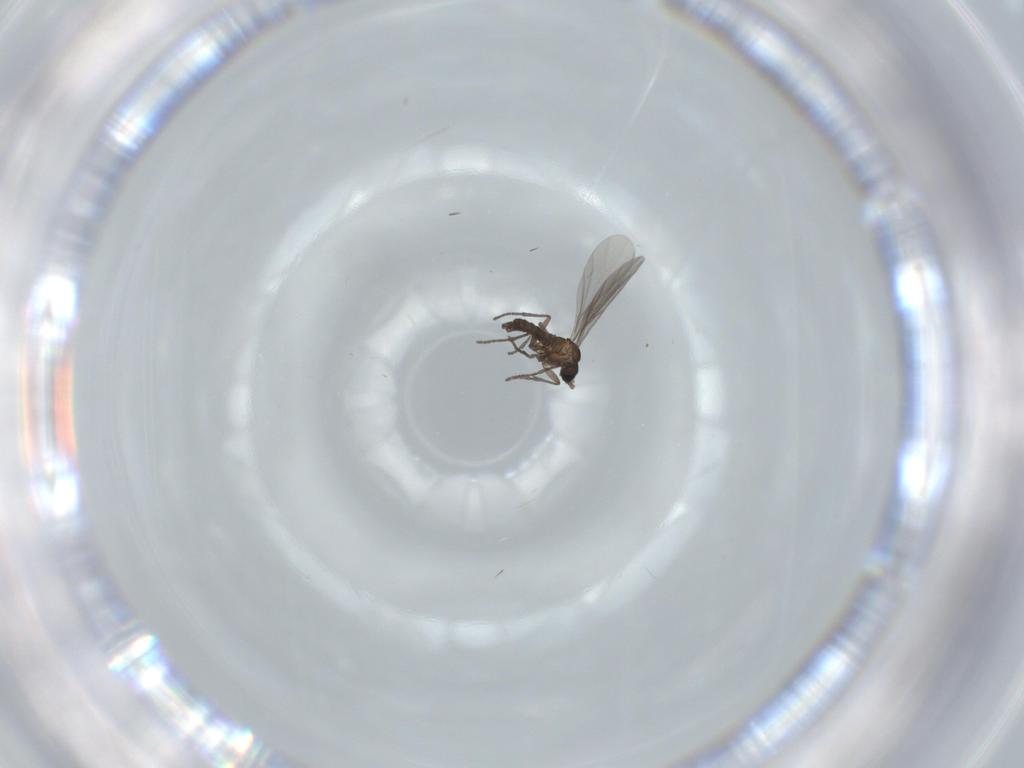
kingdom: Animalia
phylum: Arthropoda
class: Insecta
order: Diptera
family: Sciaridae
